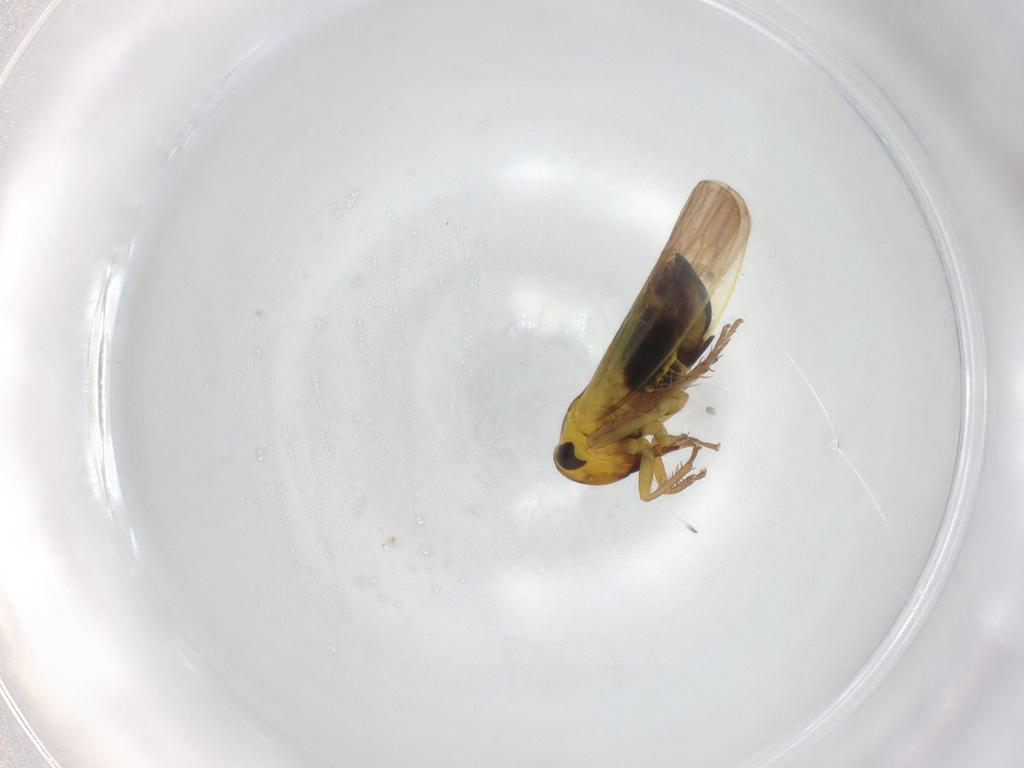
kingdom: Animalia
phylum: Arthropoda
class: Insecta
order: Hemiptera
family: Cicadellidae
